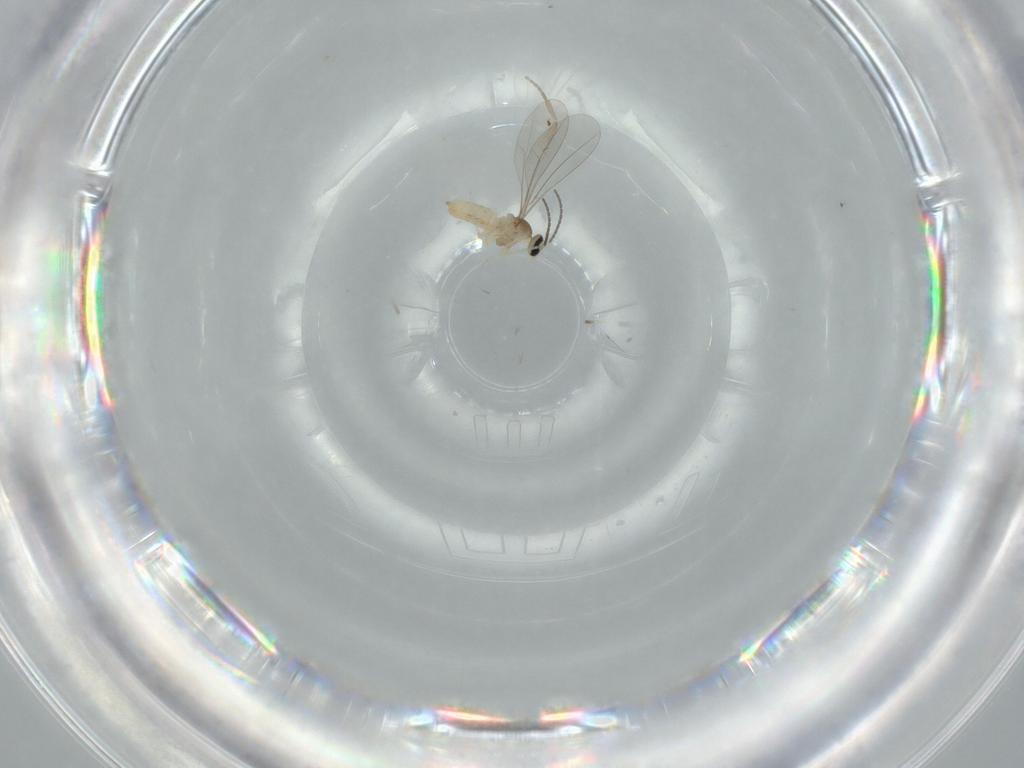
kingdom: Animalia
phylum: Arthropoda
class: Insecta
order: Diptera
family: Phoridae
